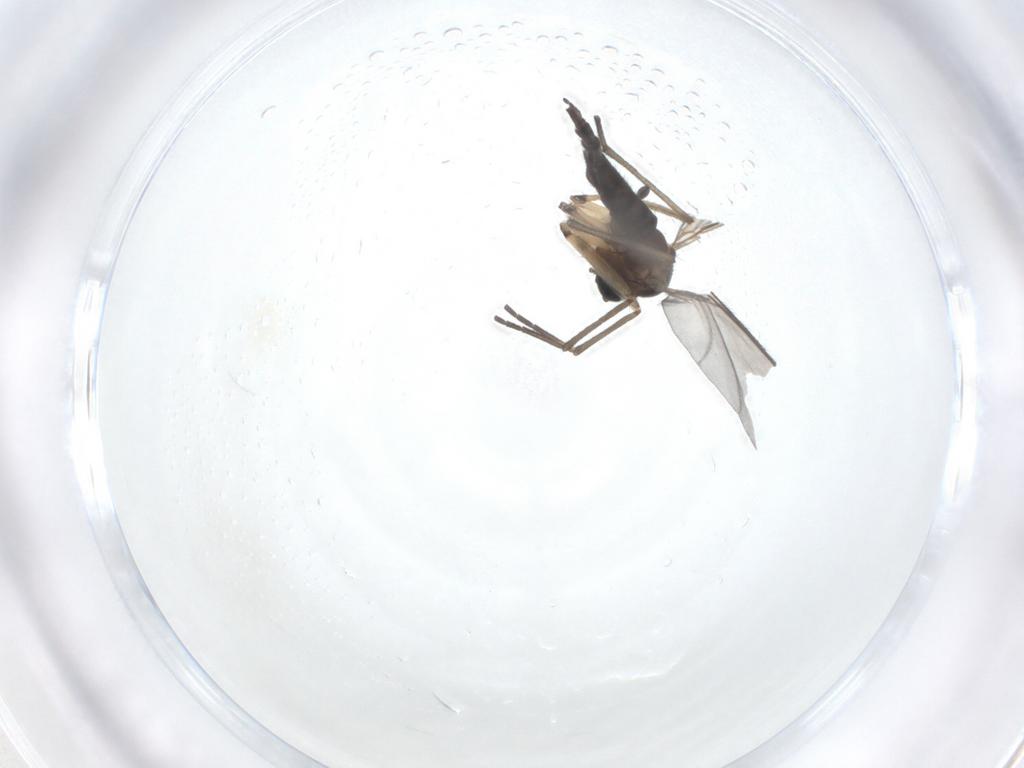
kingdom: Animalia
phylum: Arthropoda
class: Insecta
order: Diptera
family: Sciaridae
